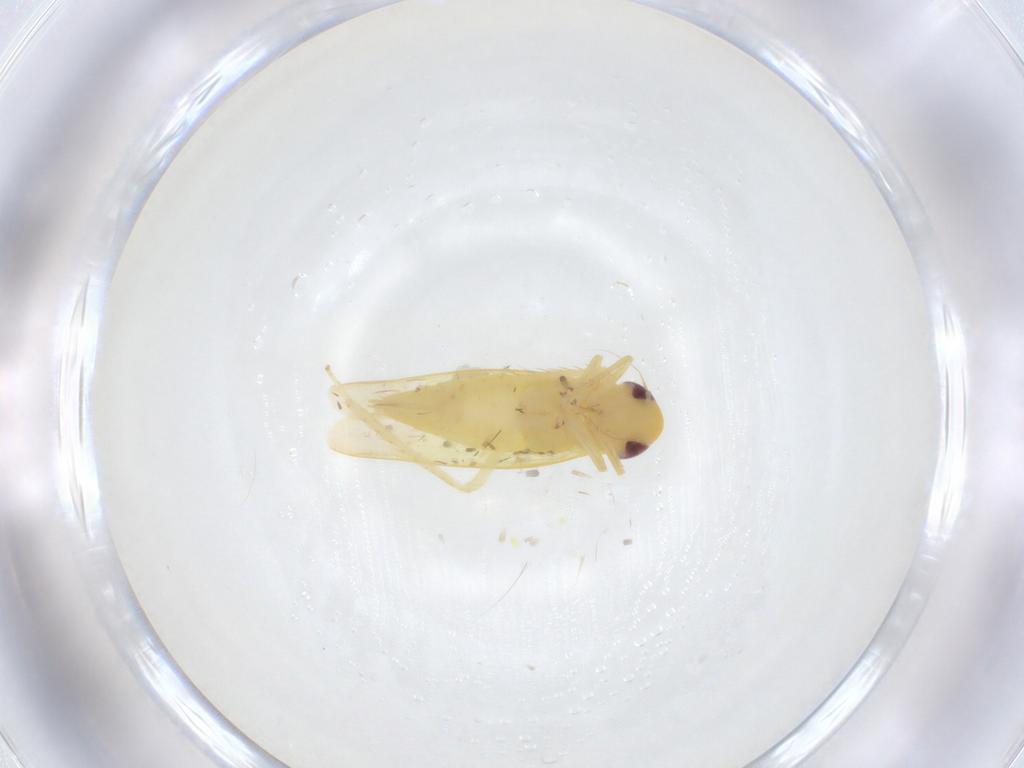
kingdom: Animalia
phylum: Arthropoda
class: Insecta
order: Hemiptera
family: Cicadellidae
